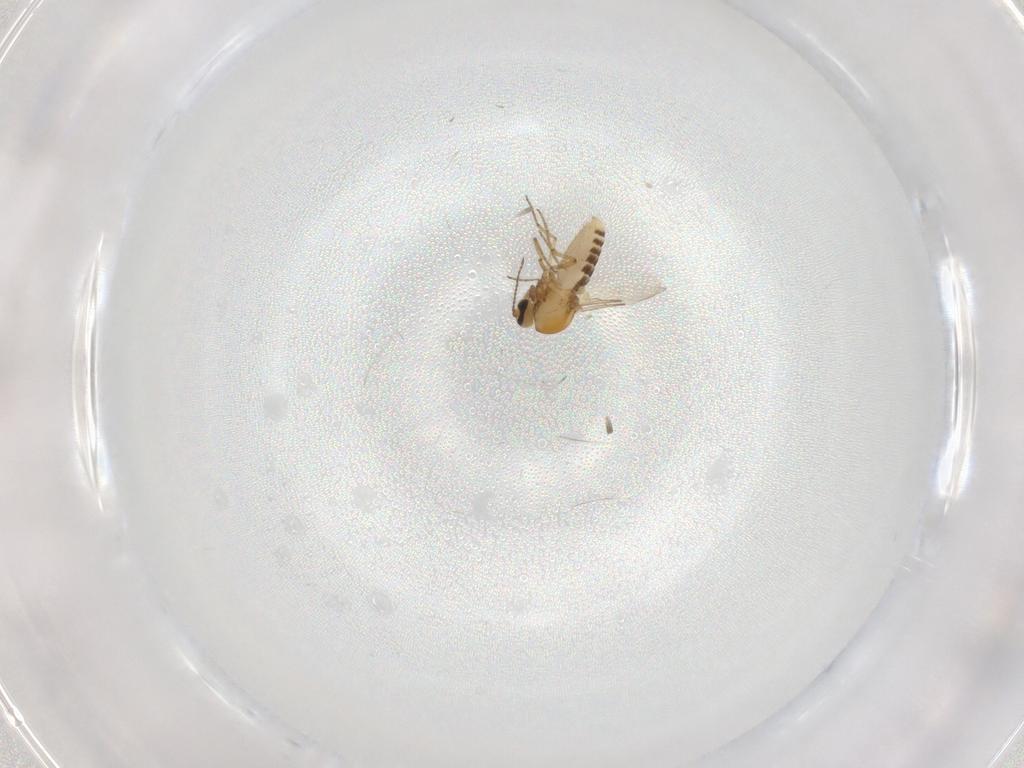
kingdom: Animalia
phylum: Arthropoda
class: Insecta
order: Diptera
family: Ceratopogonidae
